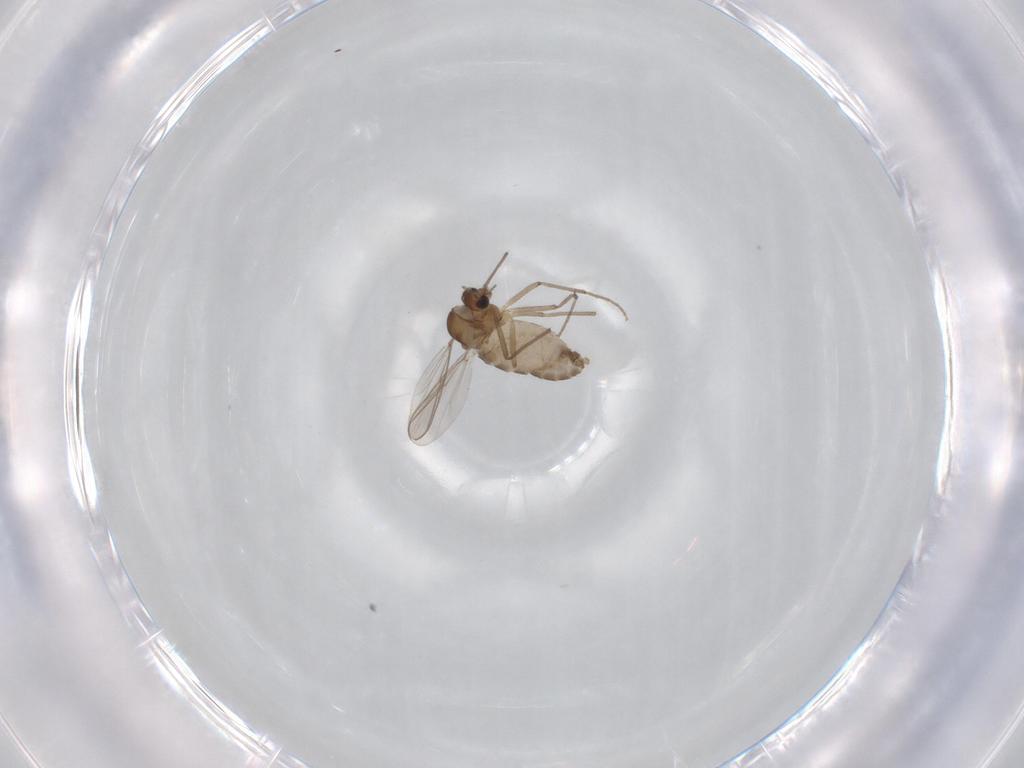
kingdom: Animalia
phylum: Arthropoda
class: Insecta
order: Diptera
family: Chironomidae
